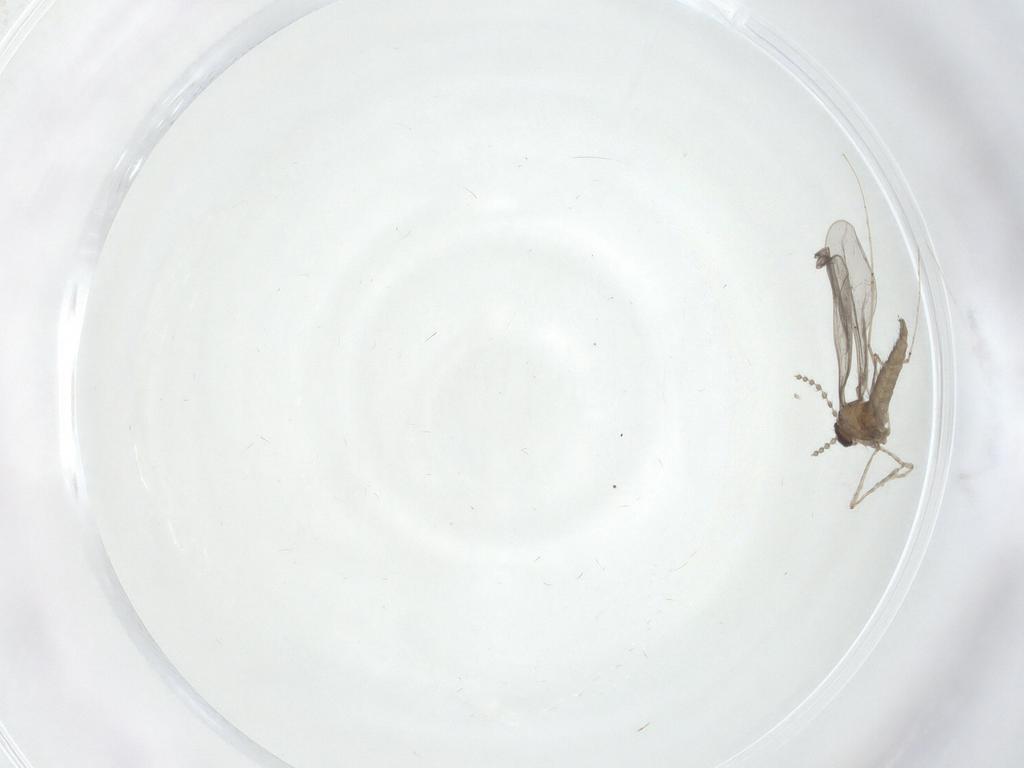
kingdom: Animalia
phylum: Arthropoda
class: Insecta
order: Diptera
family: Cecidomyiidae
